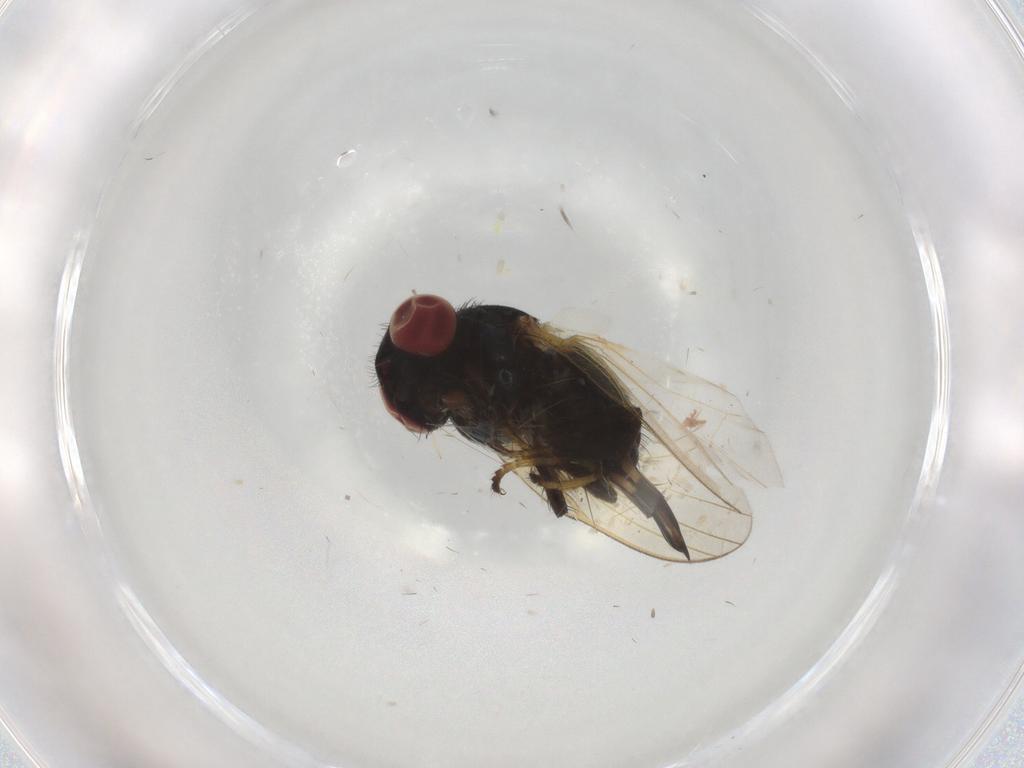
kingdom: Animalia
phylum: Arthropoda
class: Insecta
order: Diptera
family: Lonchaeidae
